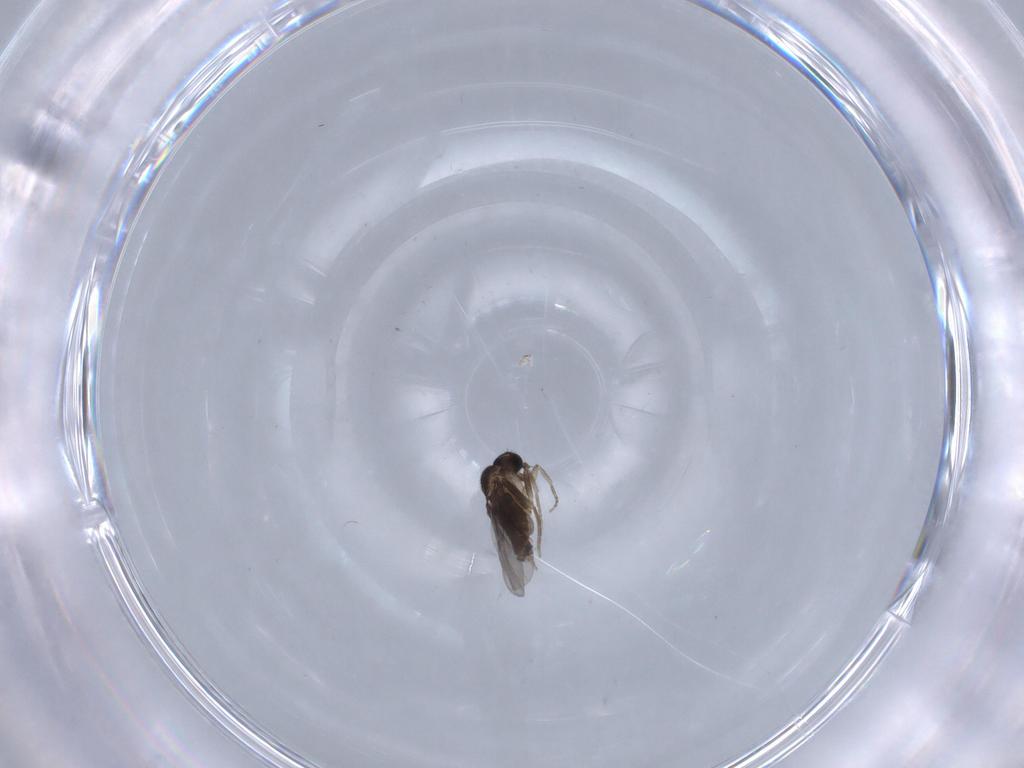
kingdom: Animalia
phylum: Arthropoda
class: Insecta
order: Diptera
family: Chironomidae
